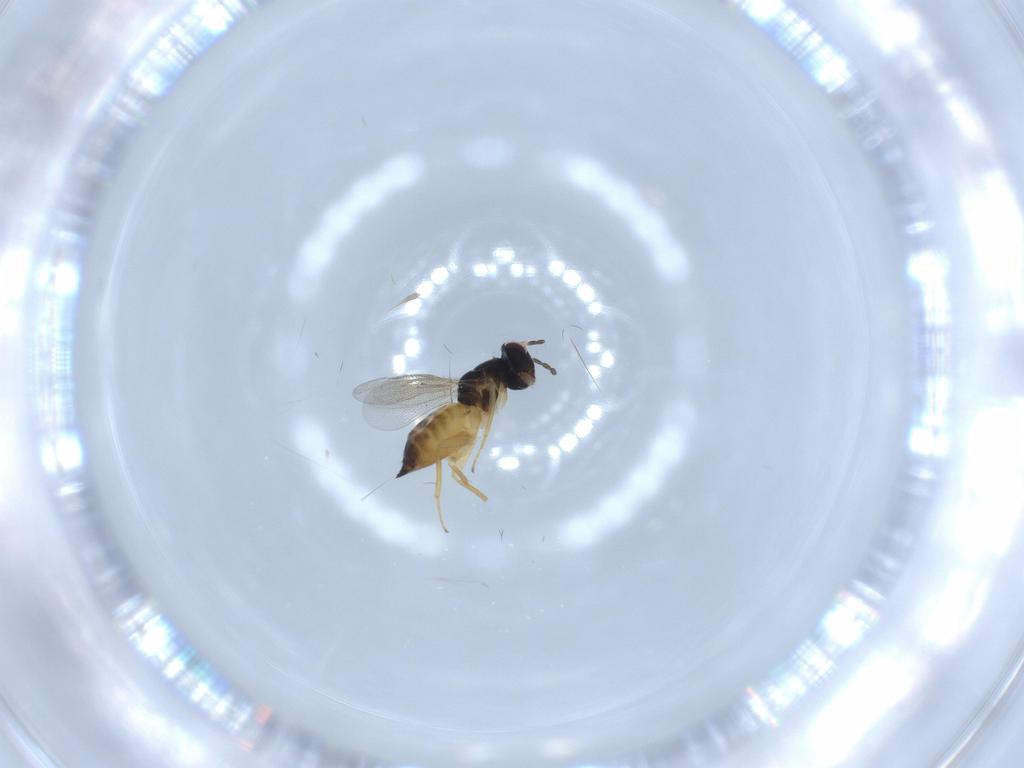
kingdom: Animalia
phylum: Arthropoda
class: Insecta
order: Hymenoptera
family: Eulophidae
